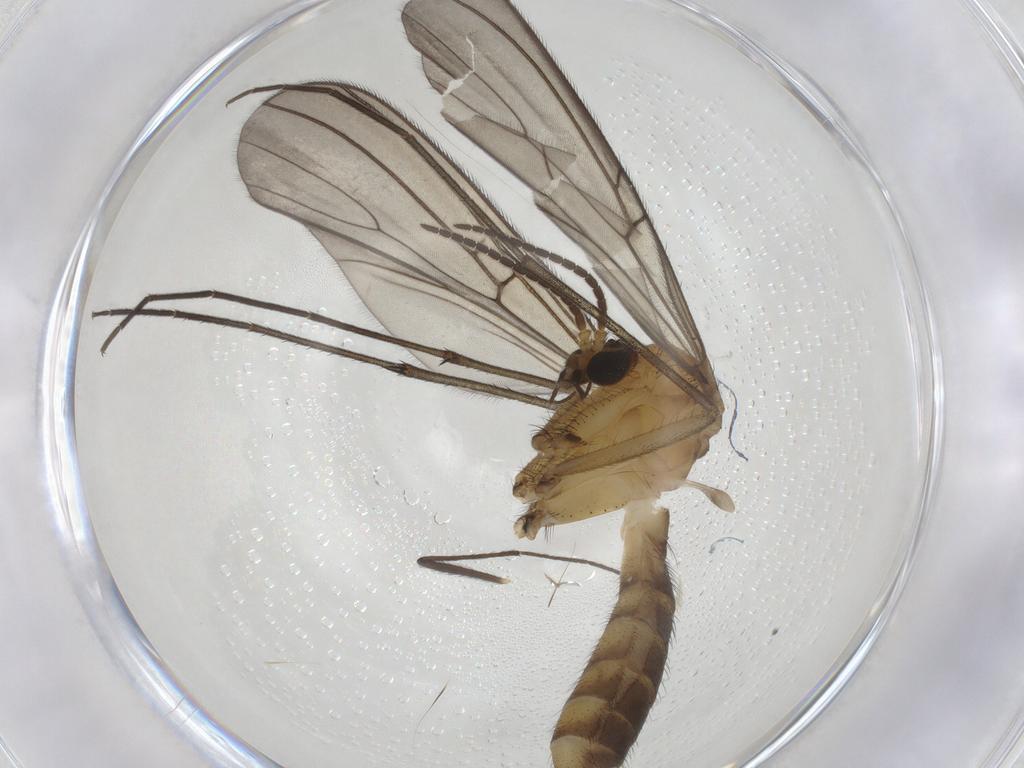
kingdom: Animalia
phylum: Arthropoda
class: Insecta
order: Diptera
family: Mycetophilidae
